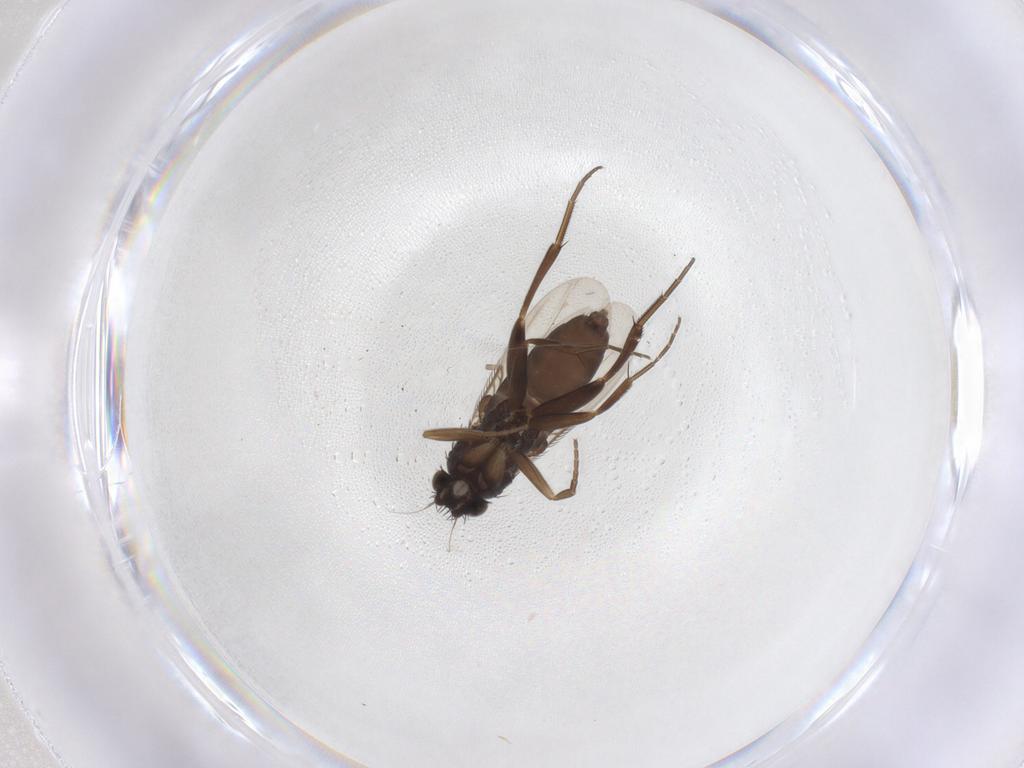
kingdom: Animalia
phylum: Arthropoda
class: Insecta
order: Diptera
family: Phoridae
